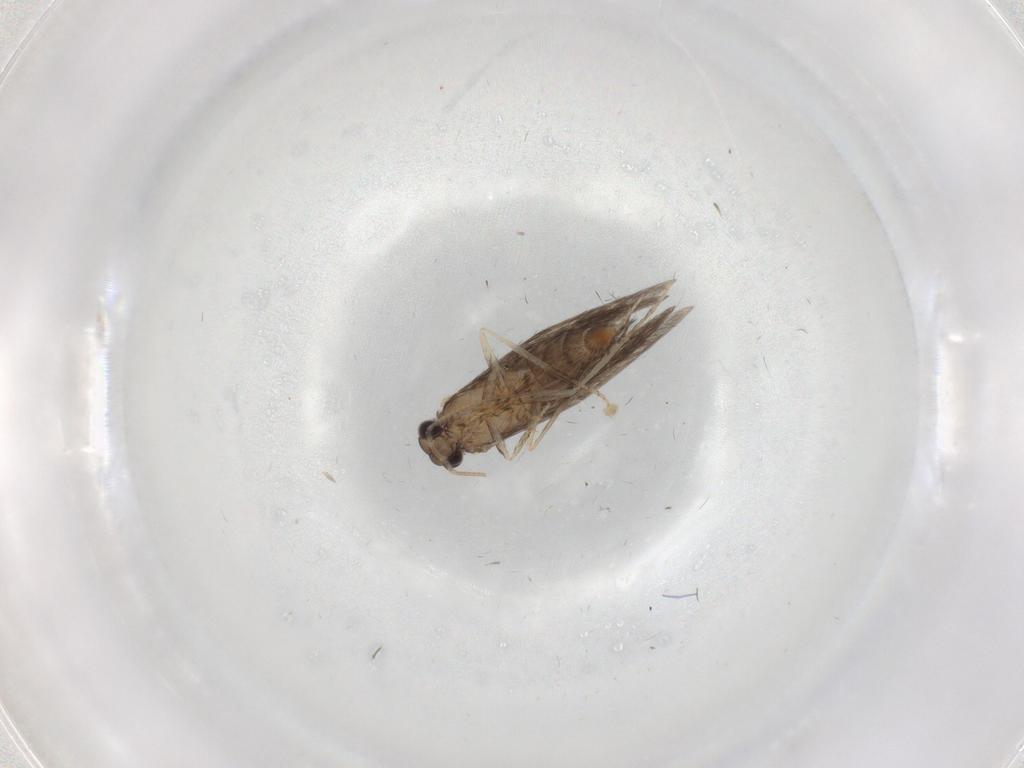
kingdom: Animalia
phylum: Arthropoda
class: Insecta
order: Trichoptera
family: Hydroptilidae
